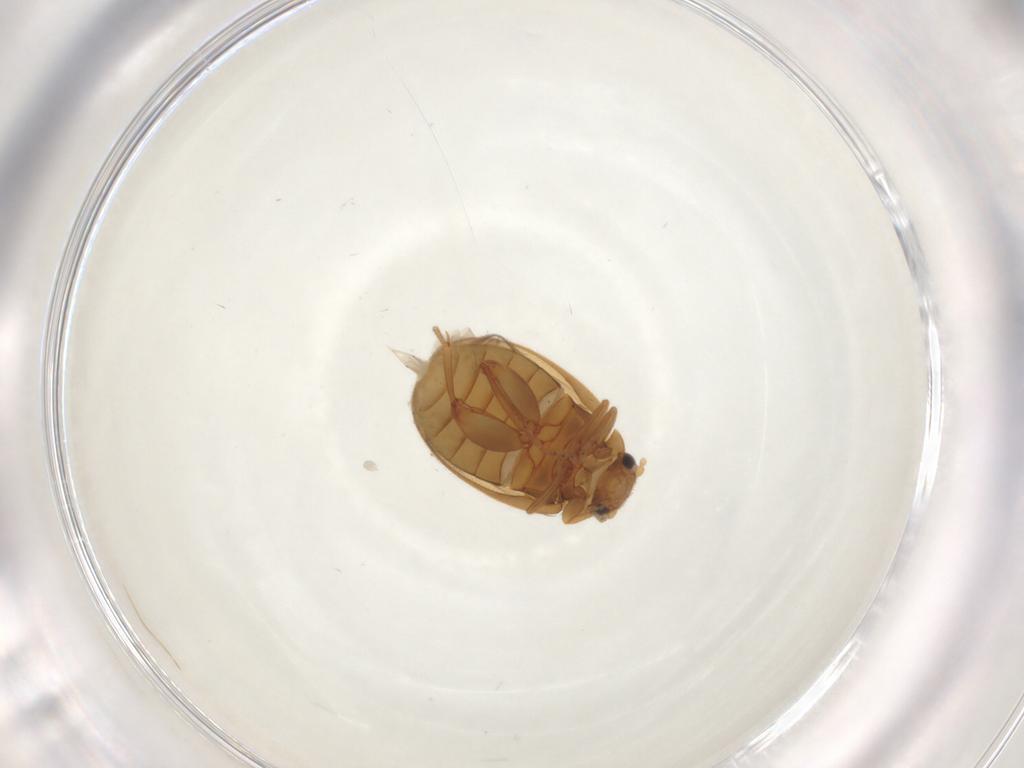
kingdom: Animalia
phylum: Arthropoda
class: Insecta
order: Coleoptera
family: Scirtidae
